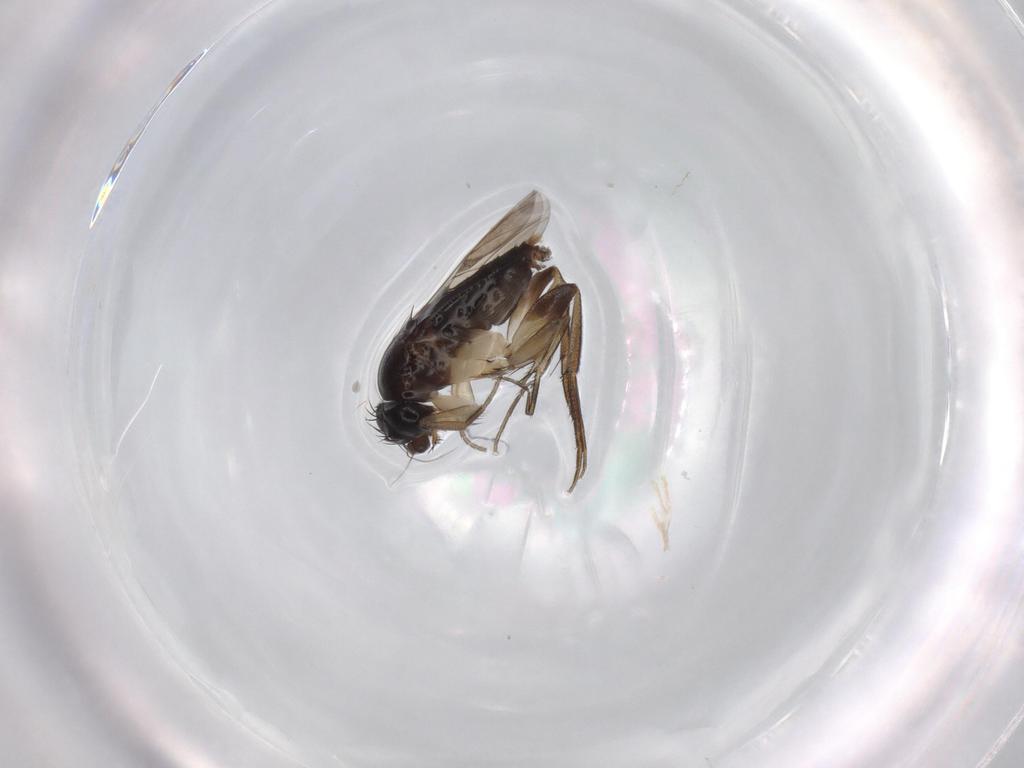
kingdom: Animalia
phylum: Arthropoda
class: Insecta
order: Diptera
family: Phoridae
